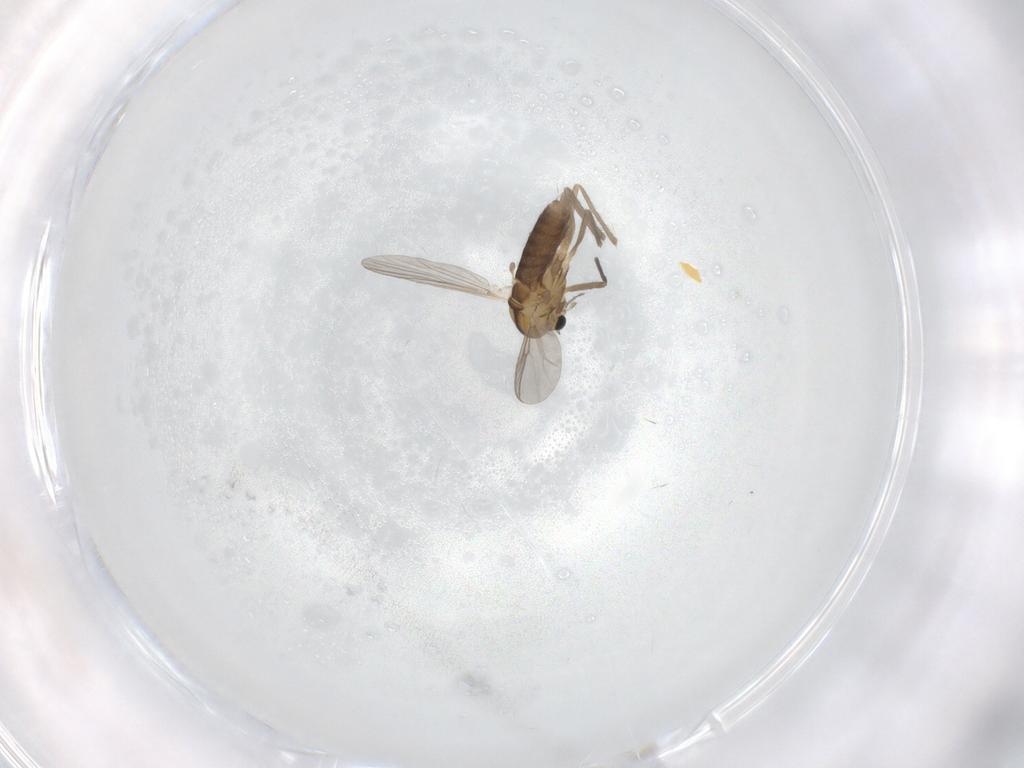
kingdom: Animalia
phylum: Arthropoda
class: Insecta
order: Diptera
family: Chironomidae
